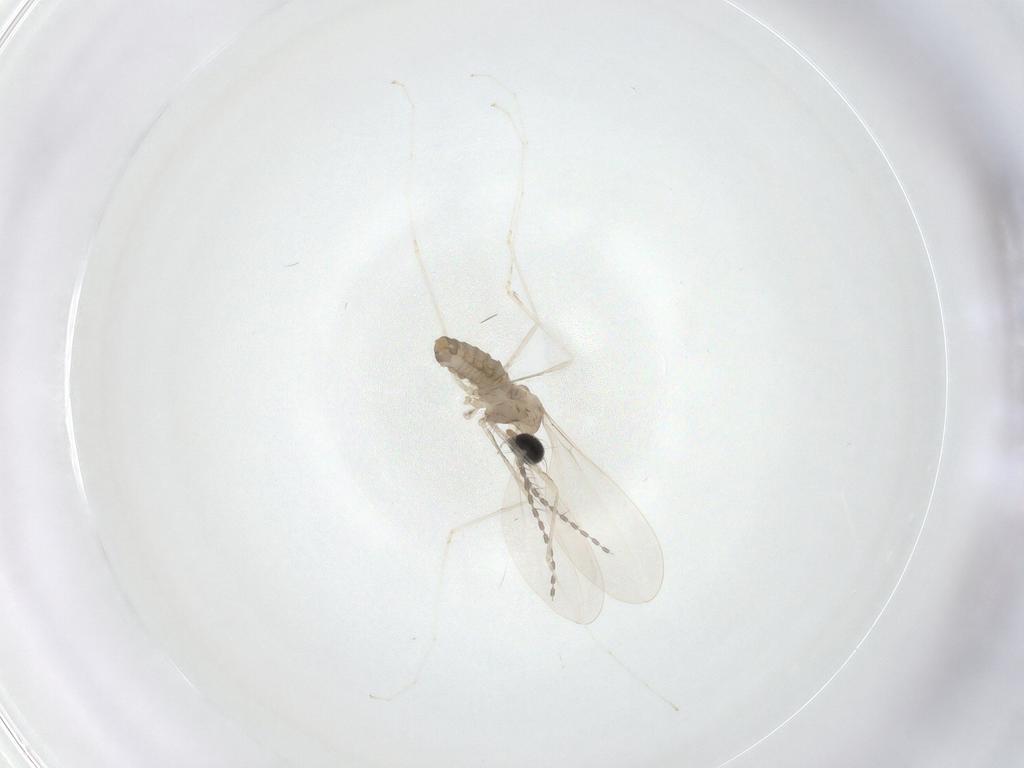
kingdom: Animalia
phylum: Arthropoda
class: Insecta
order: Diptera
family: Cecidomyiidae
